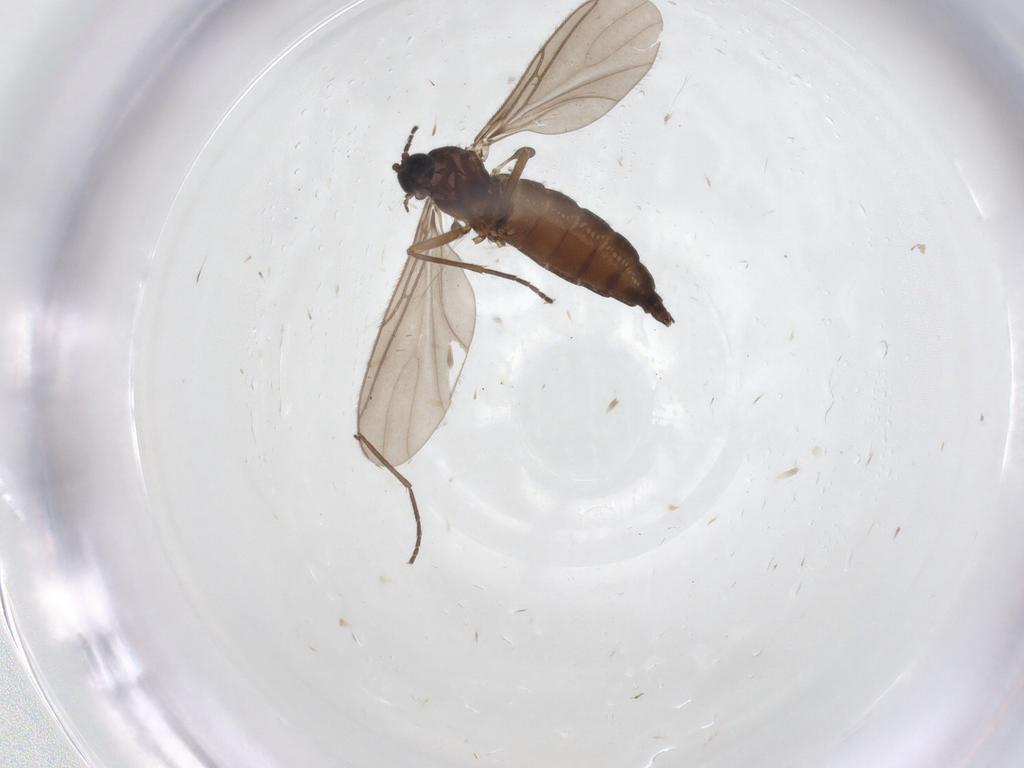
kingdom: Animalia
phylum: Arthropoda
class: Insecta
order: Diptera
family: Sciaridae
